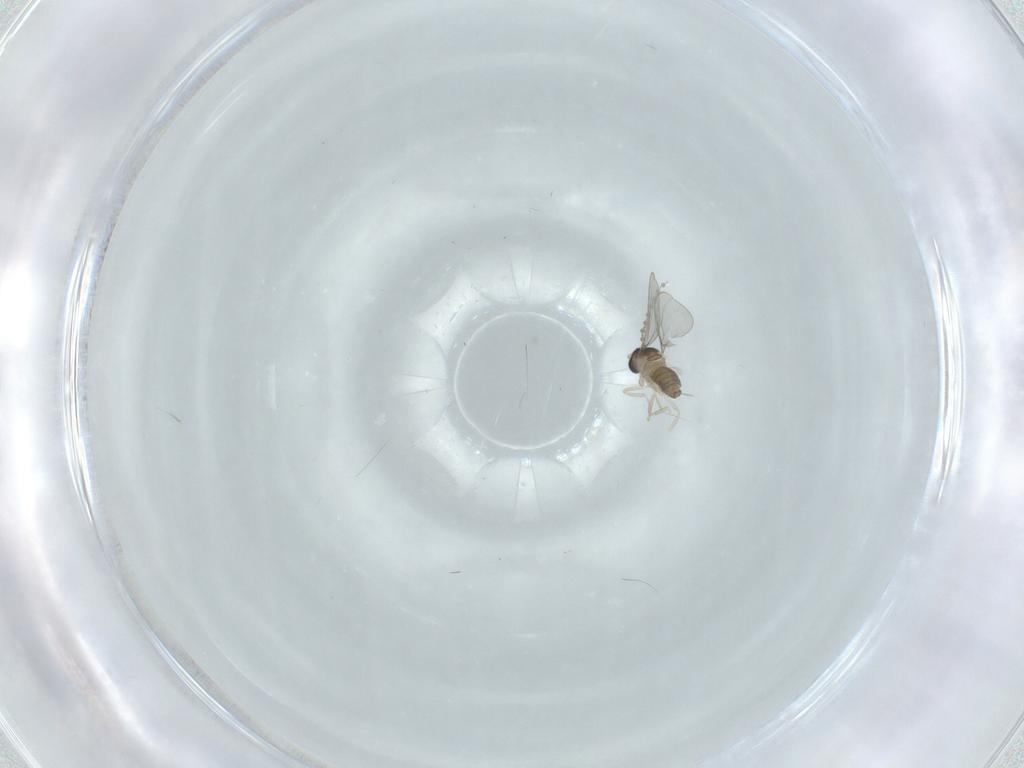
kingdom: Animalia
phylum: Arthropoda
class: Insecta
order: Diptera
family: Cecidomyiidae
